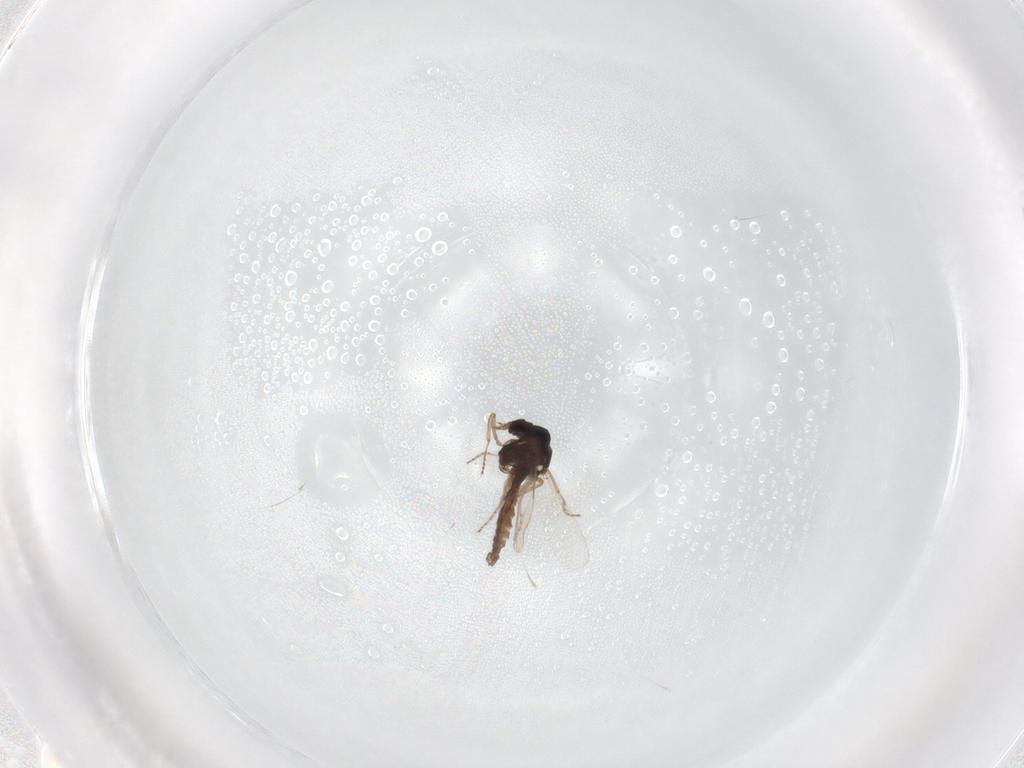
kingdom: Animalia
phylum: Arthropoda
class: Insecta
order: Diptera
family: Ceratopogonidae
